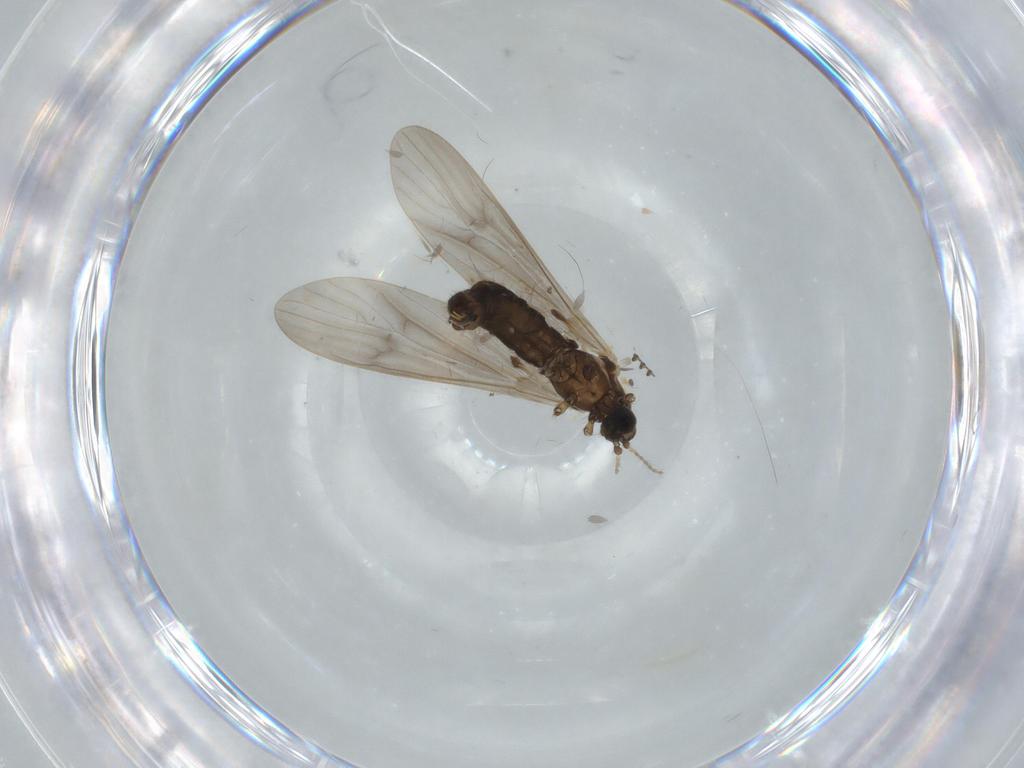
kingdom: Animalia
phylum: Arthropoda
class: Insecta
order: Diptera
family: Limoniidae
